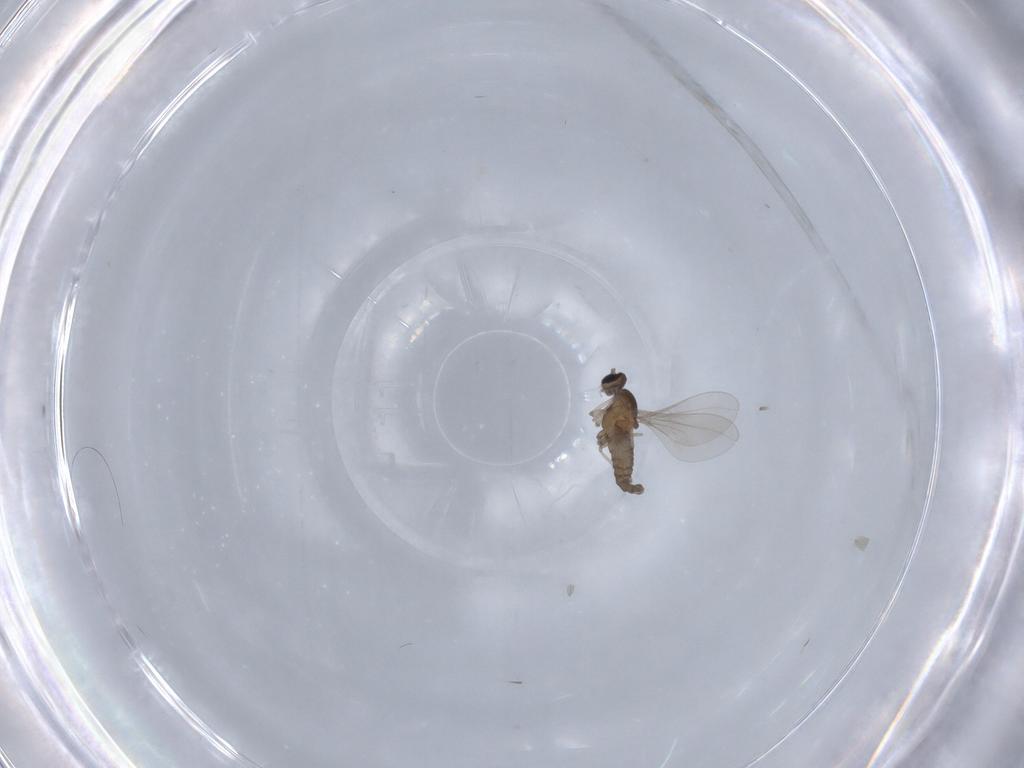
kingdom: Animalia
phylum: Arthropoda
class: Insecta
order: Diptera
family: Cecidomyiidae
